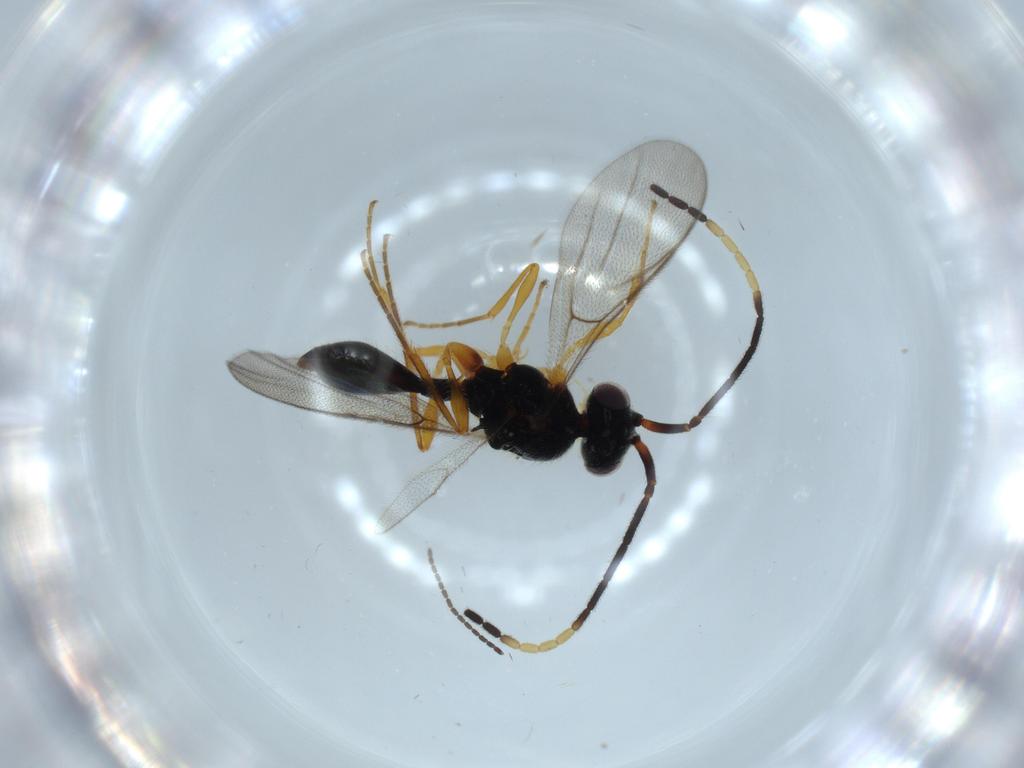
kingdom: Animalia
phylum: Arthropoda
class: Insecta
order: Hymenoptera
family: Diapriidae
